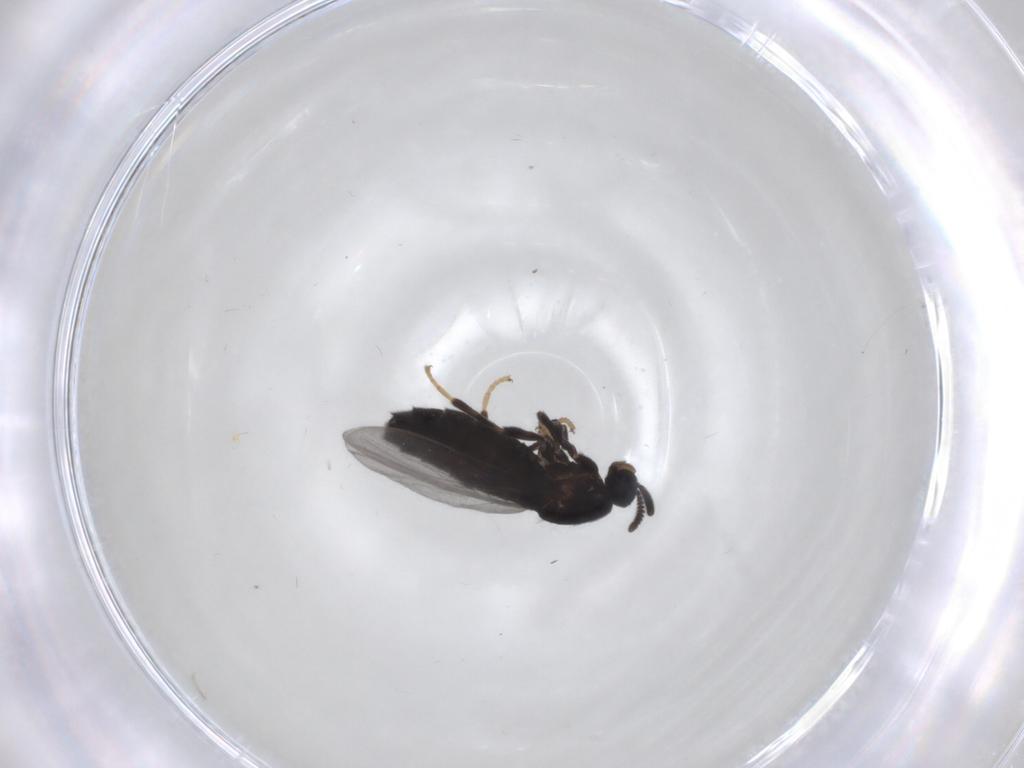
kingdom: Animalia
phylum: Arthropoda
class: Insecta
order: Diptera
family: Scatopsidae
